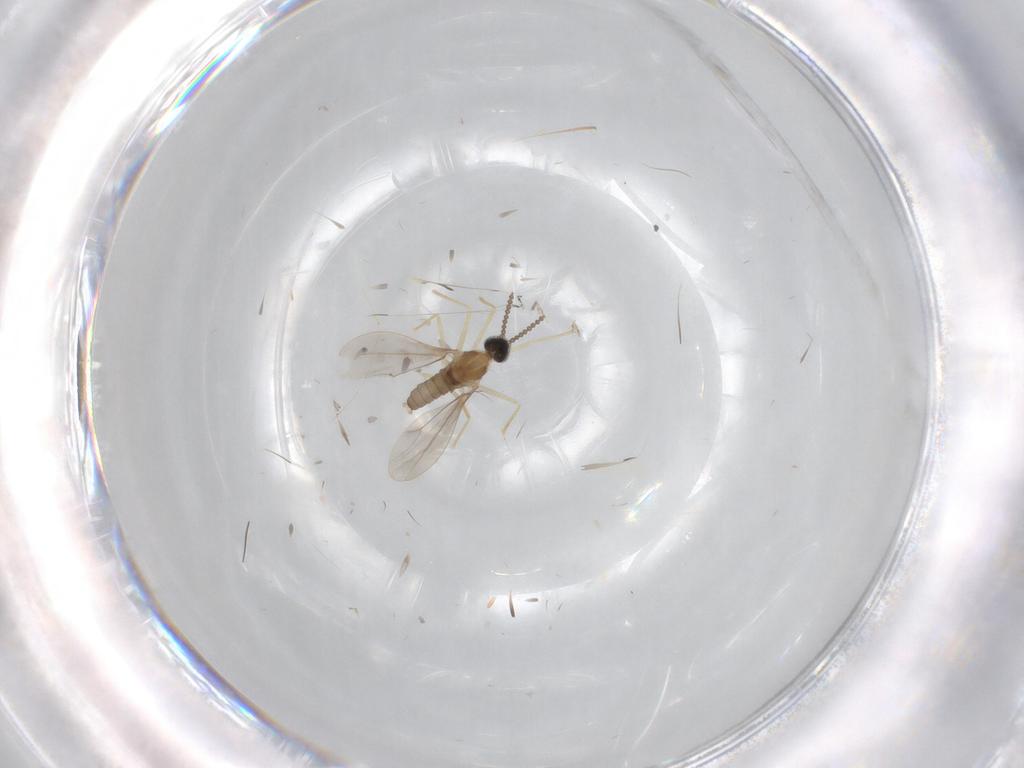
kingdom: Animalia
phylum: Arthropoda
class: Insecta
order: Diptera
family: Cecidomyiidae
